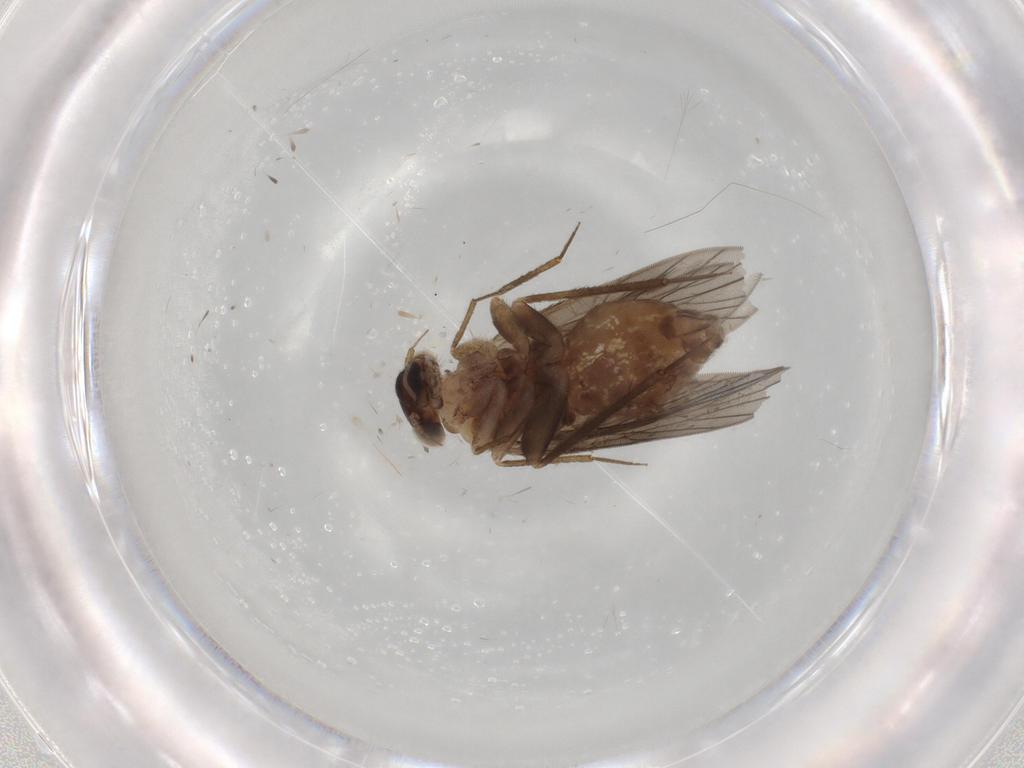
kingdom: Animalia
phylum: Arthropoda
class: Insecta
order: Psocodea
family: Lepidopsocidae
